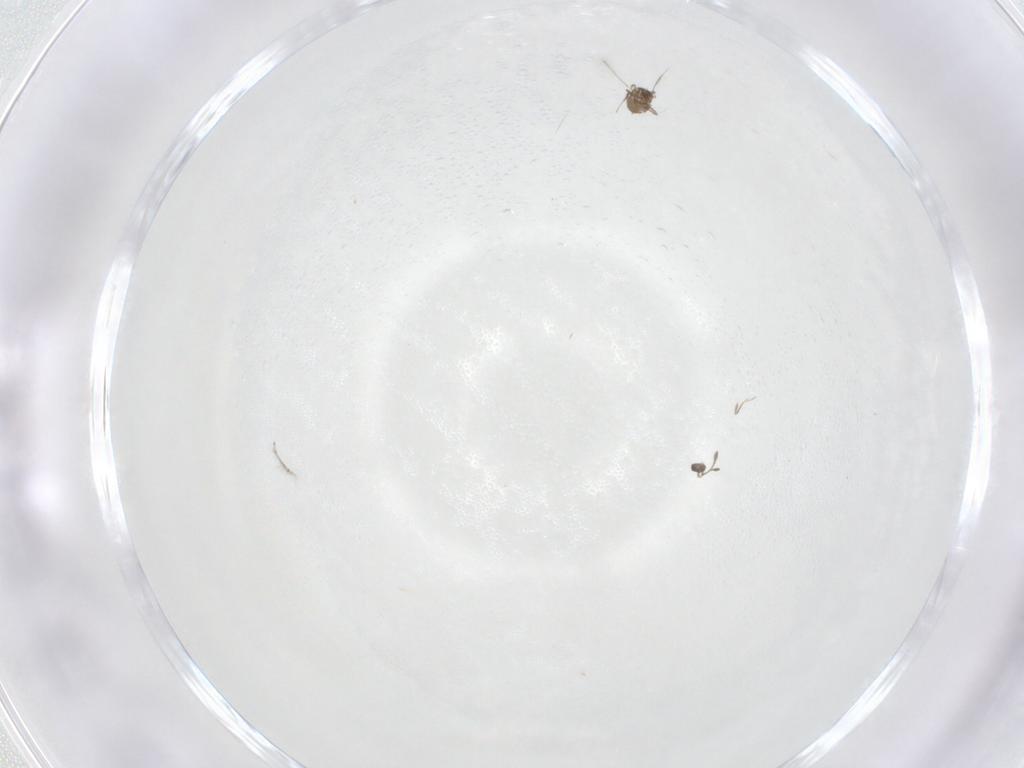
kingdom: Animalia
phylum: Arthropoda
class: Insecta
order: Hymenoptera
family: Mymaridae
